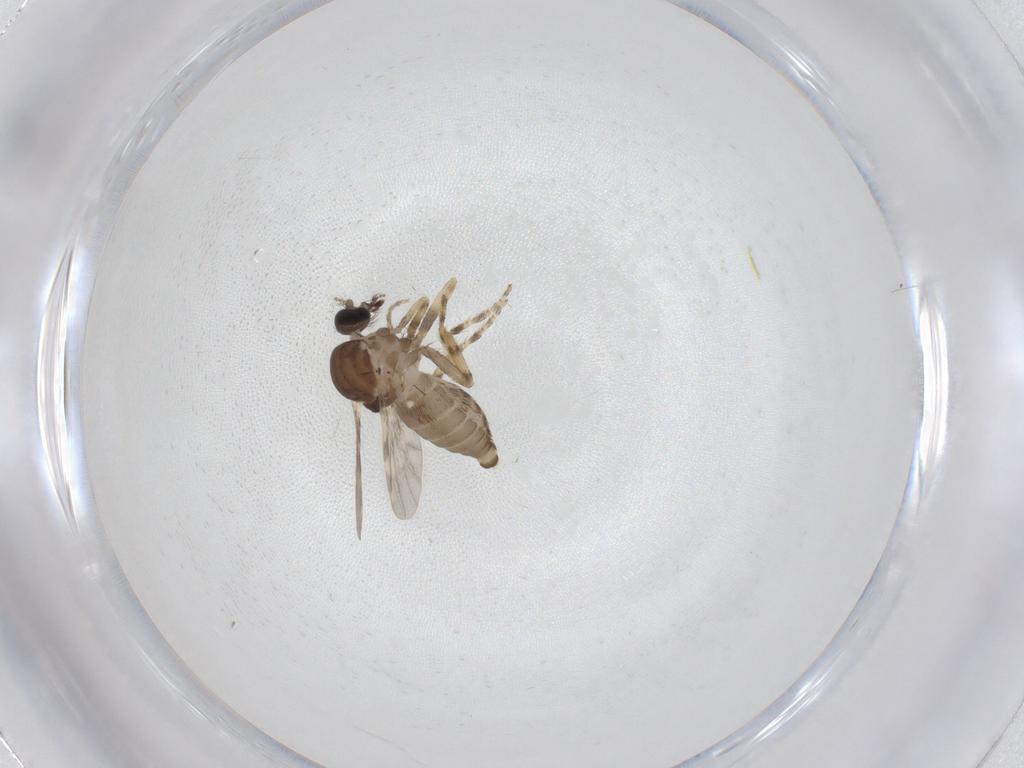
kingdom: Animalia
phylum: Arthropoda
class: Insecta
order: Diptera
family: Ceratopogonidae
